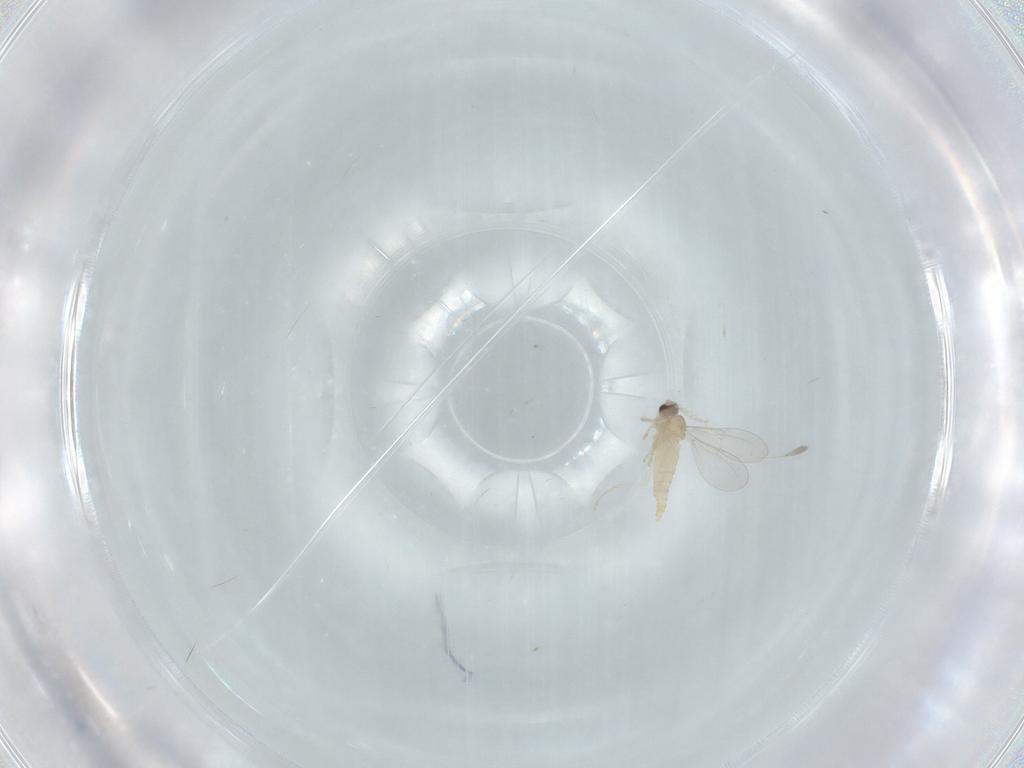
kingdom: Animalia
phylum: Arthropoda
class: Insecta
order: Diptera
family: Cecidomyiidae
